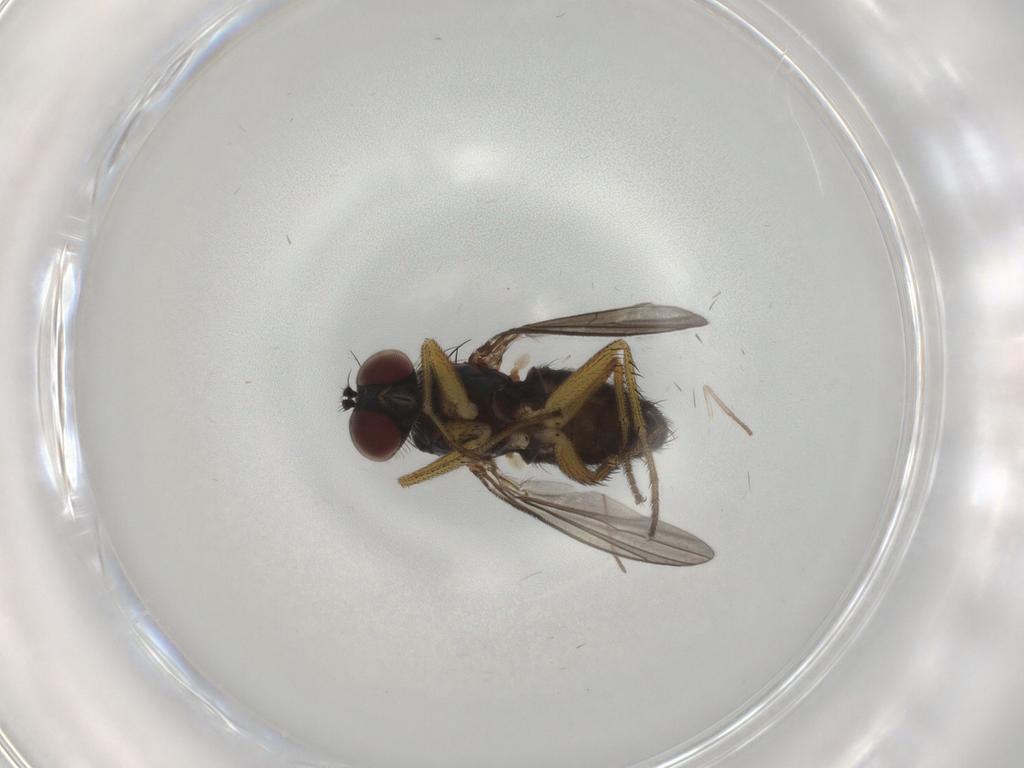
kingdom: Animalia
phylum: Arthropoda
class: Insecta
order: Diptera
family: Dolichopodidae
